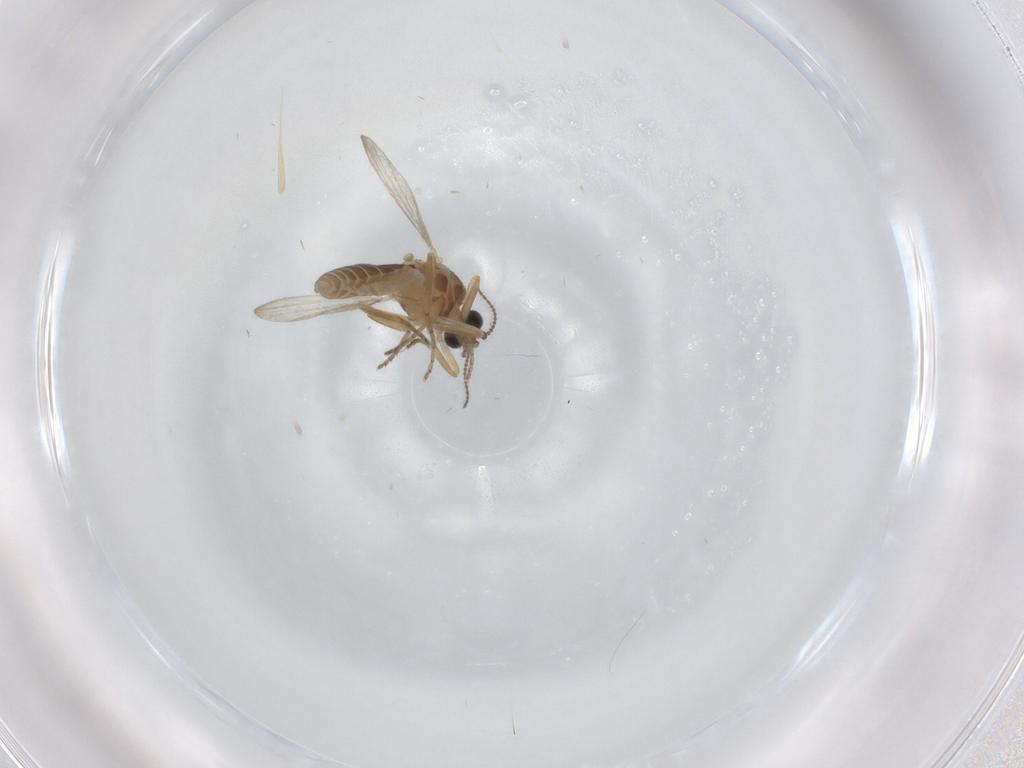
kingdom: Animalia
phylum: Arthropoda
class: Insecta
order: Diptera
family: Ceratopogonidae
